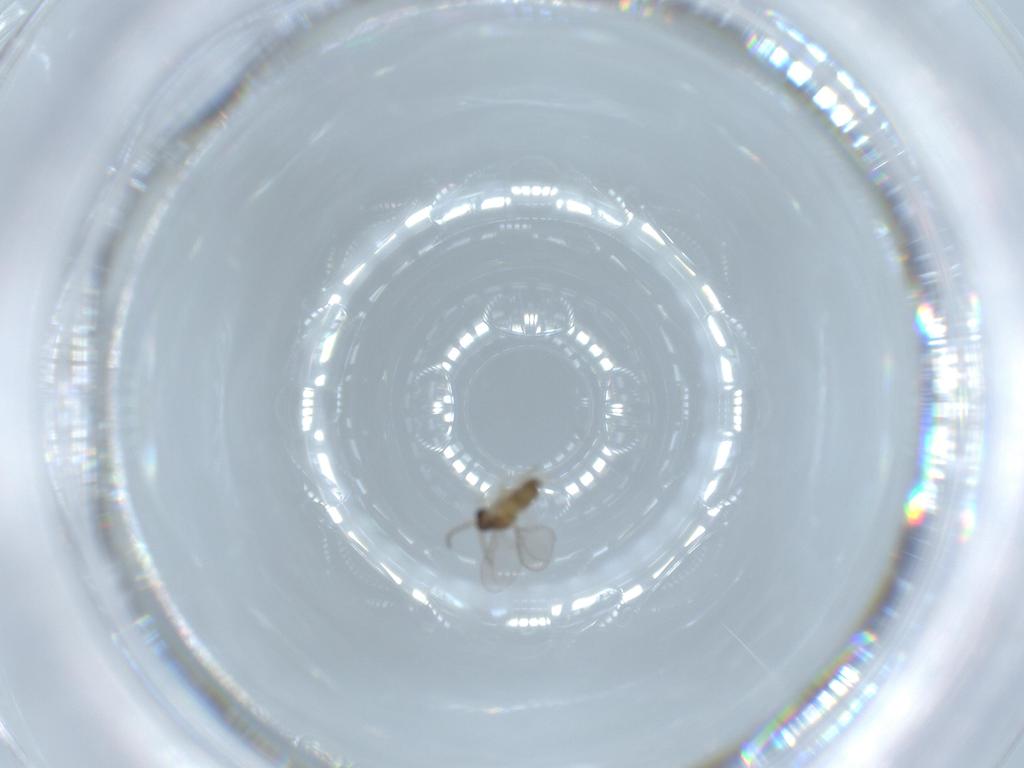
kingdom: Animalia
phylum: Arthropoda
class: Insecta
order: Diptera
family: Cecidomyiidae
